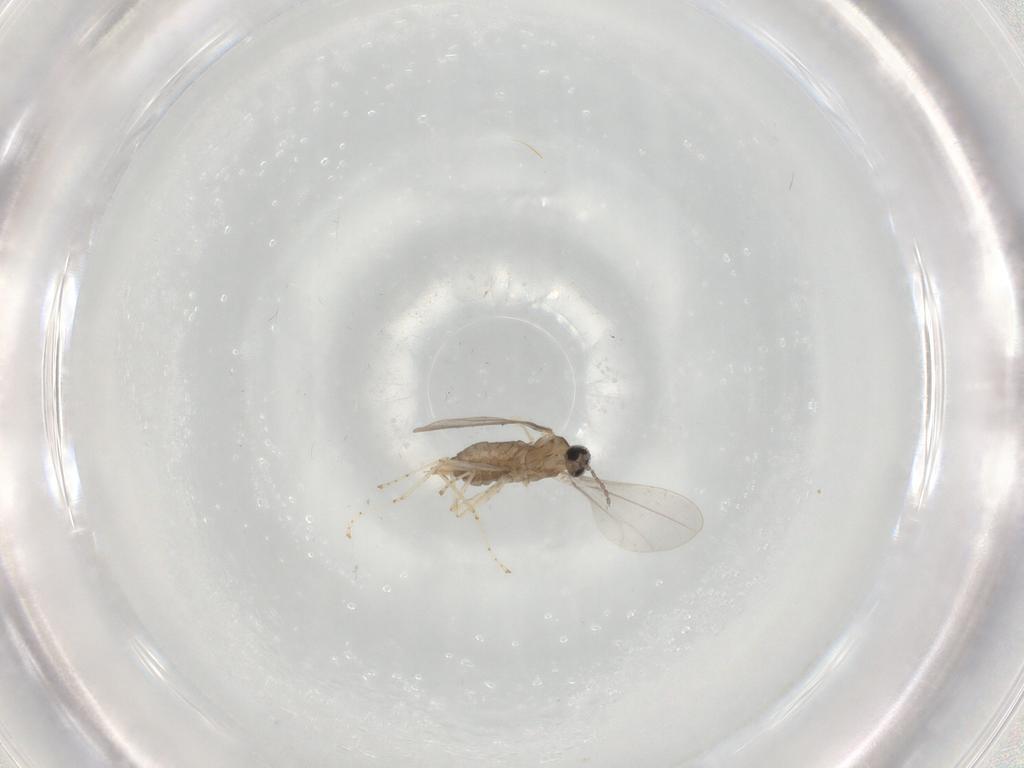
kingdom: Animalia
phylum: Arthropoda
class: Insecta
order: Diptera
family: Cecidomyiidae
